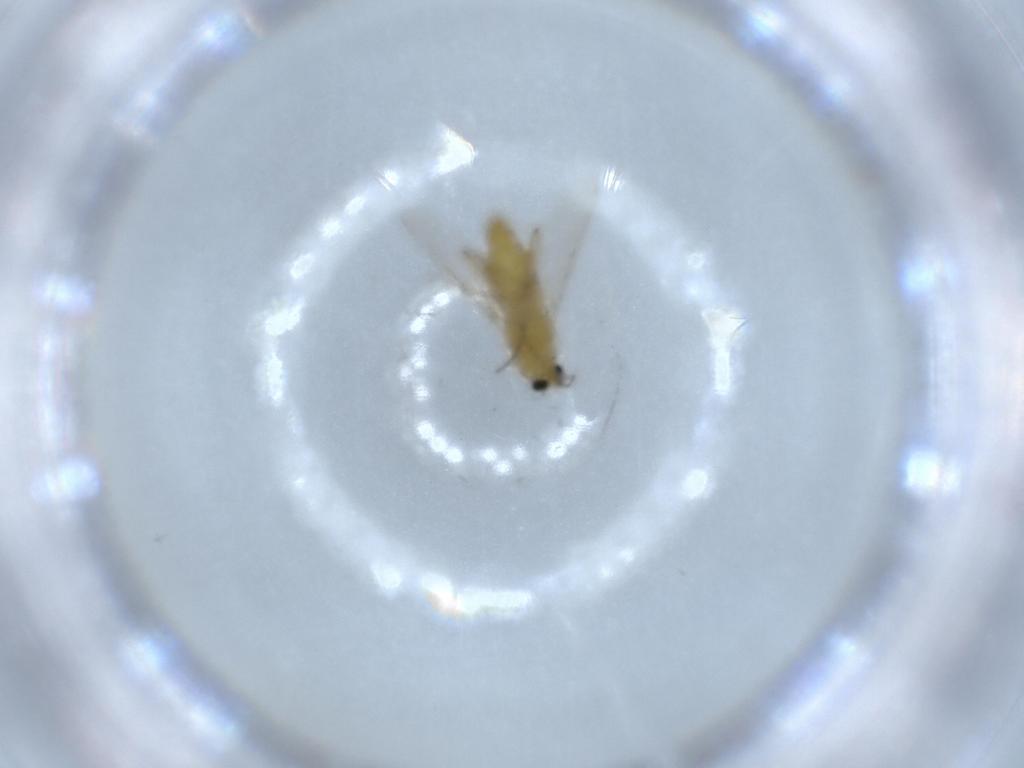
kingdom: Animalia
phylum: Arthropoda
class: Insecta
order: Diptera
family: Chironomidae
